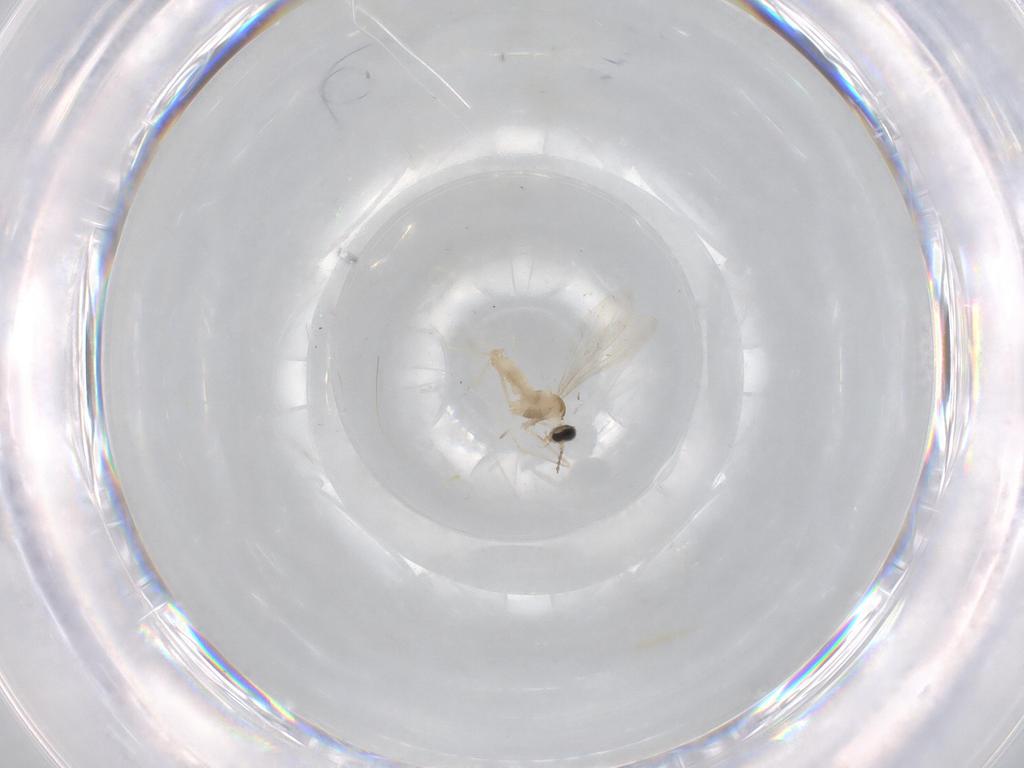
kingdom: Animalia
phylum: Arthropoda
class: Insecta
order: Diptera
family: Cecidomyiidae
